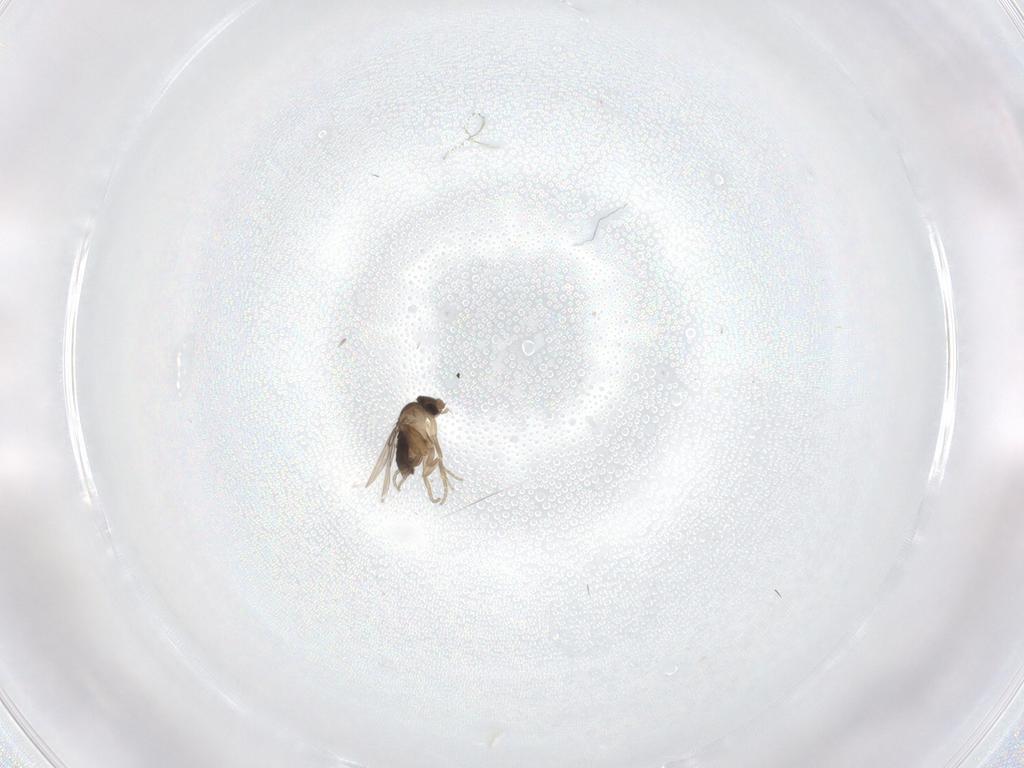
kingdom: Animalia
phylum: Arthropoda
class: Insecta
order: Diptera
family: Phoridae
